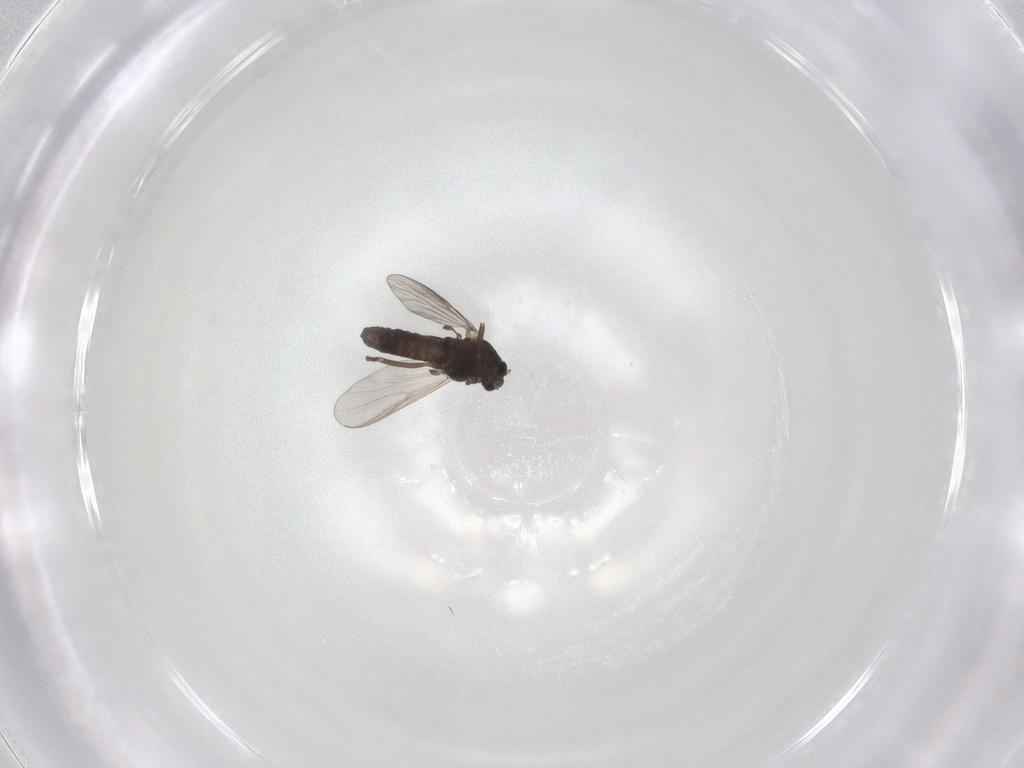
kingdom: Animalia
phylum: Arthropoda
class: Insecta
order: Diptera
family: Chironomidae
